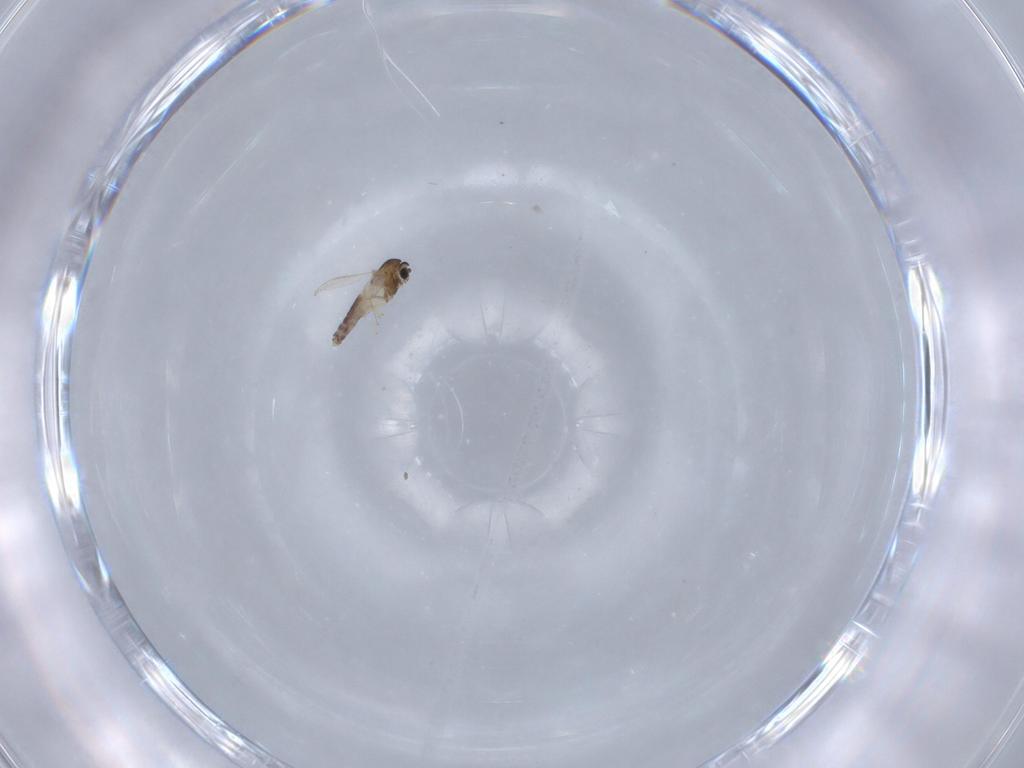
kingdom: Animalia
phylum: Arthropoda
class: Insecta
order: Diptera
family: Chironomidae
